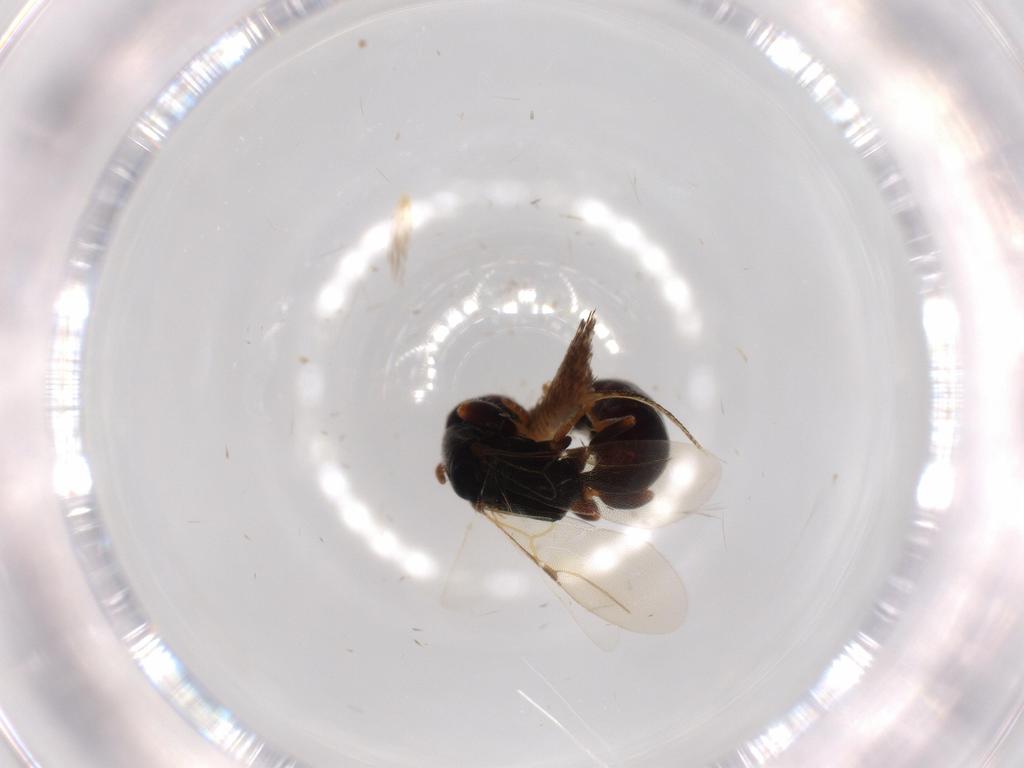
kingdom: Animalia
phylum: Arthropoda
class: Insecta
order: Hymenoptera
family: Bethylidae
